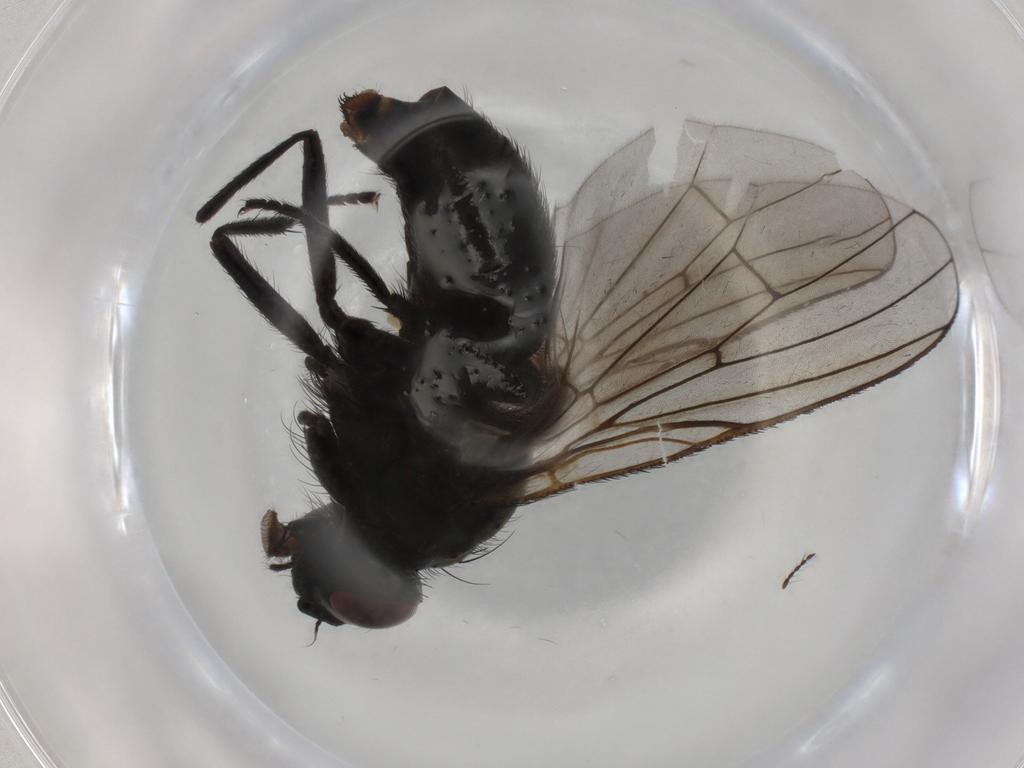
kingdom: Animalia
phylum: Arthropoda
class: Insecta
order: Diptera
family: Muscidae
